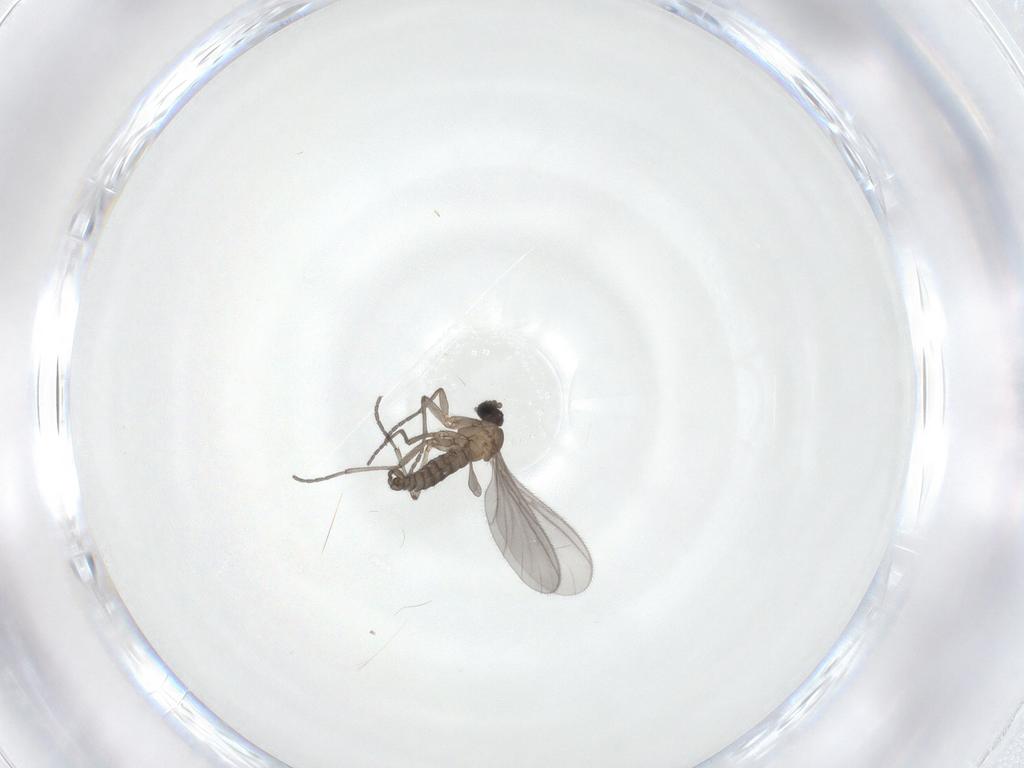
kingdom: Animalia
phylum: Arthropoda
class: Insecta
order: Diptera
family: Sciaridae
